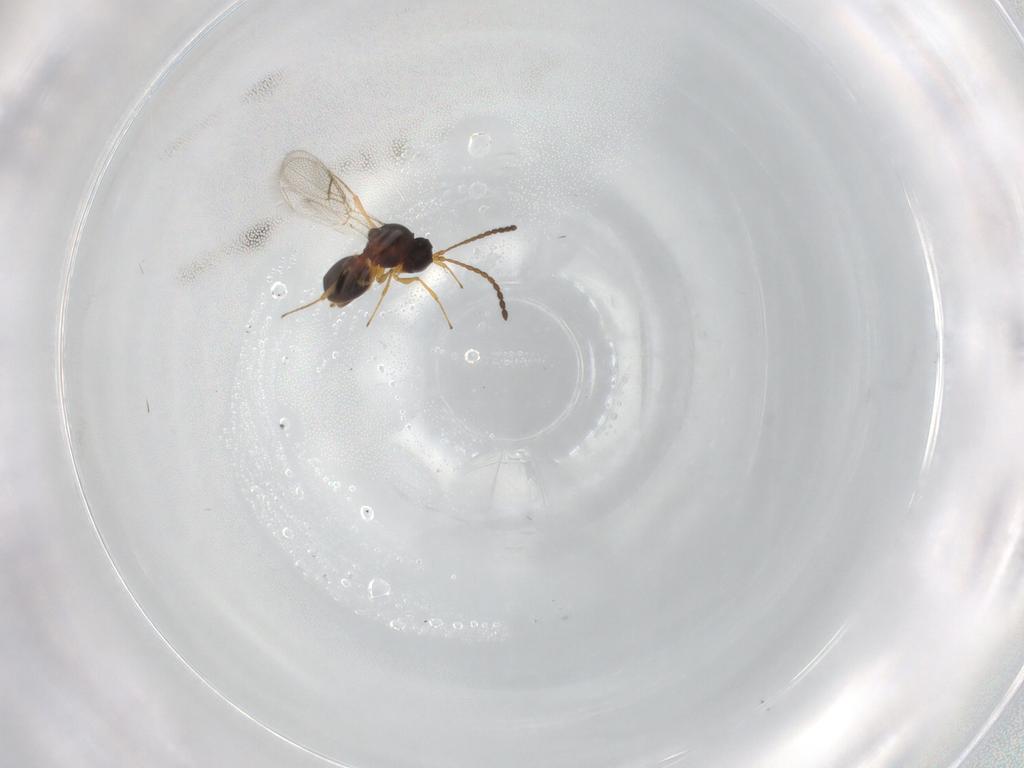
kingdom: Animalia
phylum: Arthropoda
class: Insecta
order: Hymenoptera
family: Figitidae
